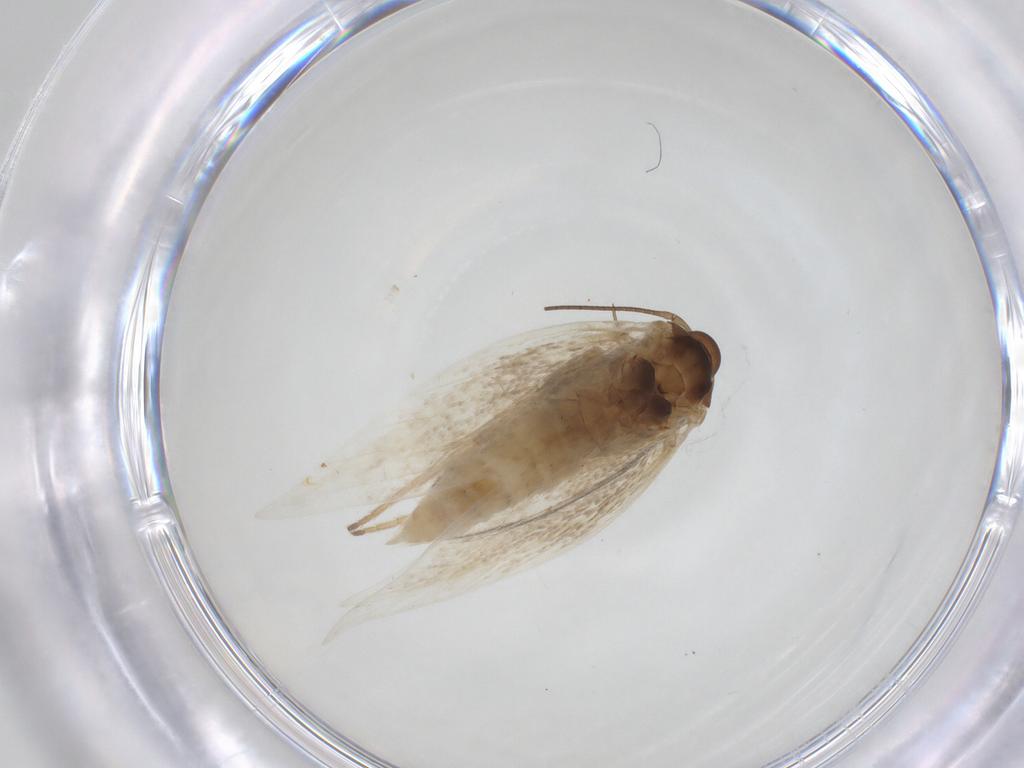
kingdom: Animalia
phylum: Arthropoda
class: Insecta
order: Lepidoptera
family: Elachistidae
